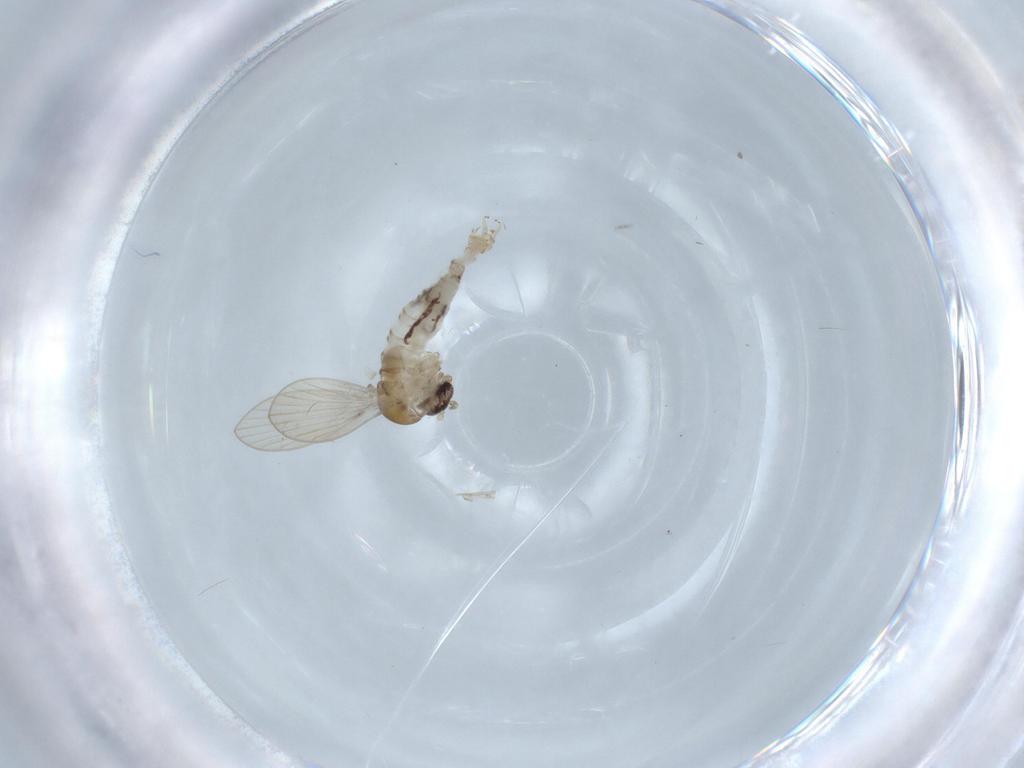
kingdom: Animalia
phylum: Arthropoda
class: Insecta
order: Diptera
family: Psychodidae
